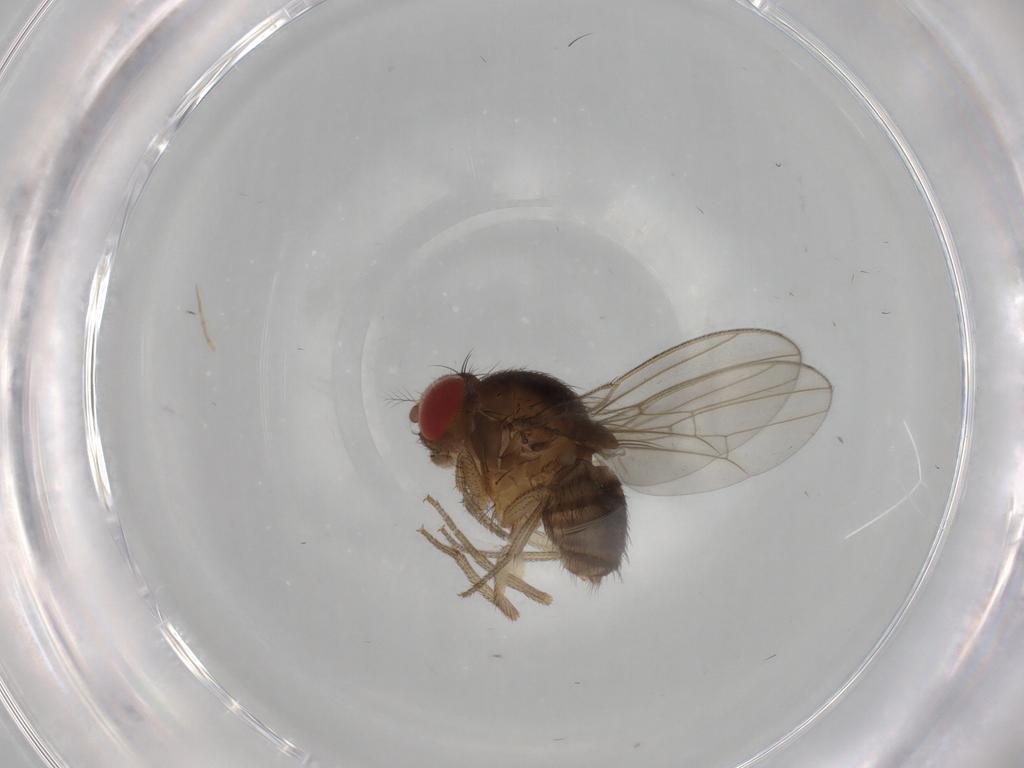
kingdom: Animalia
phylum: Arthropoda
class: Insecta
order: Diptera
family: Drosophilidae
